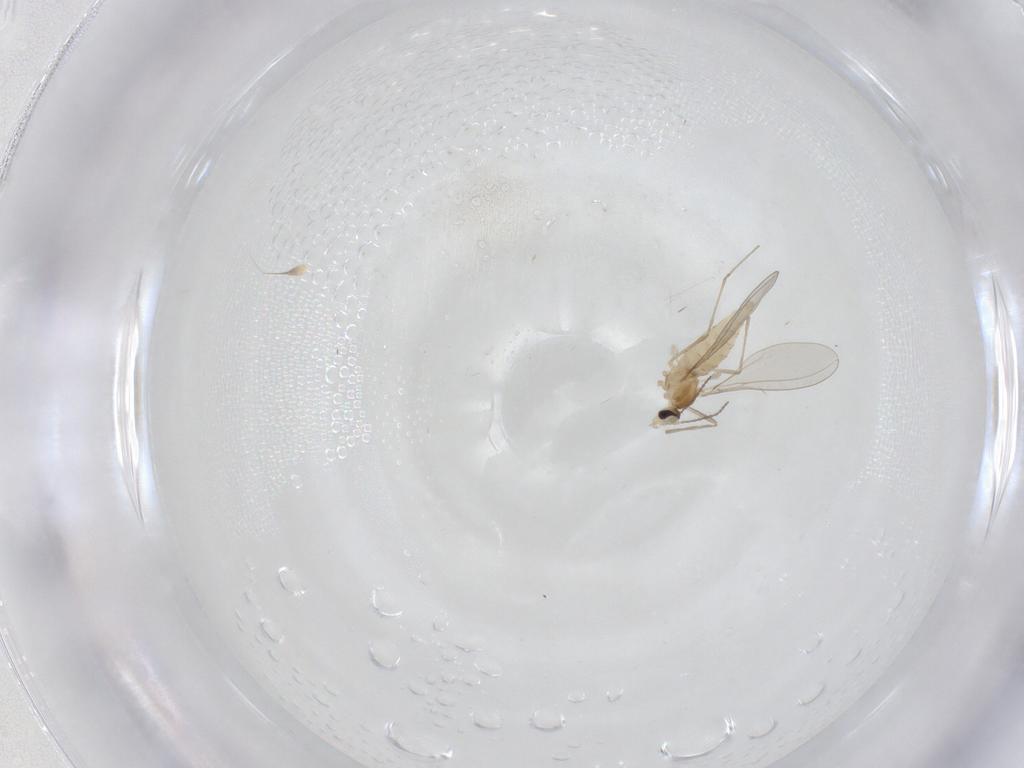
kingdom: Animalia
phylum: Arthropoda
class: Insecta
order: Diptera
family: Cecidomyiidae
